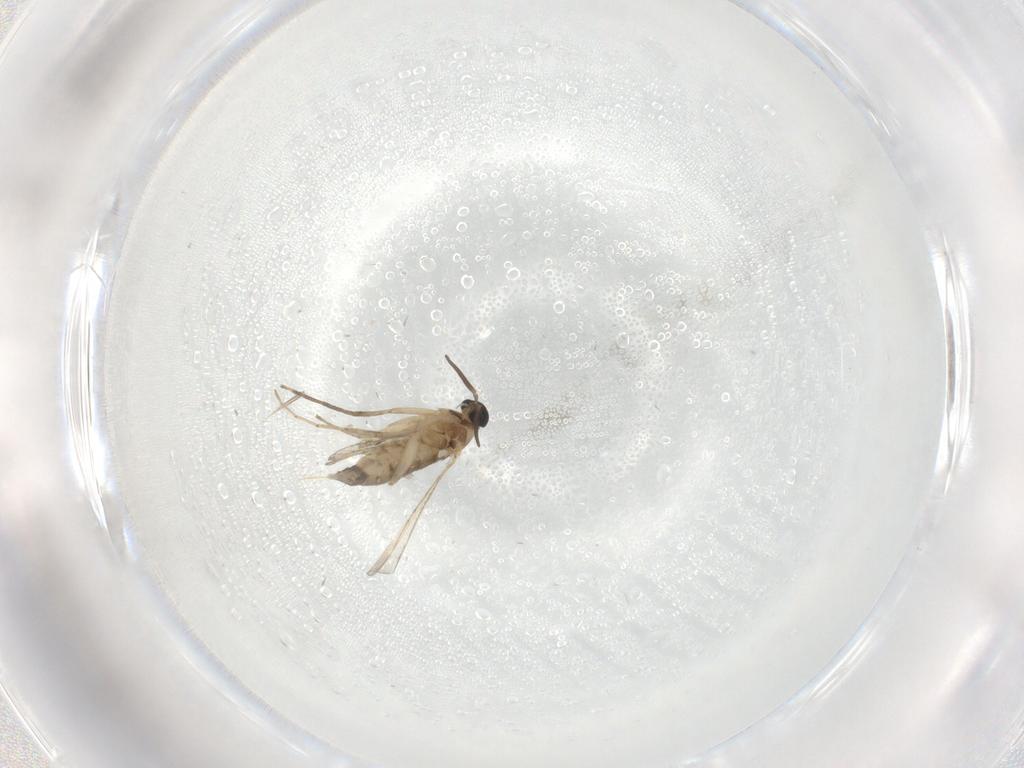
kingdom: Animalia
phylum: Arthropoda
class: Insecta
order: Diptera
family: Cecidomyiidae
